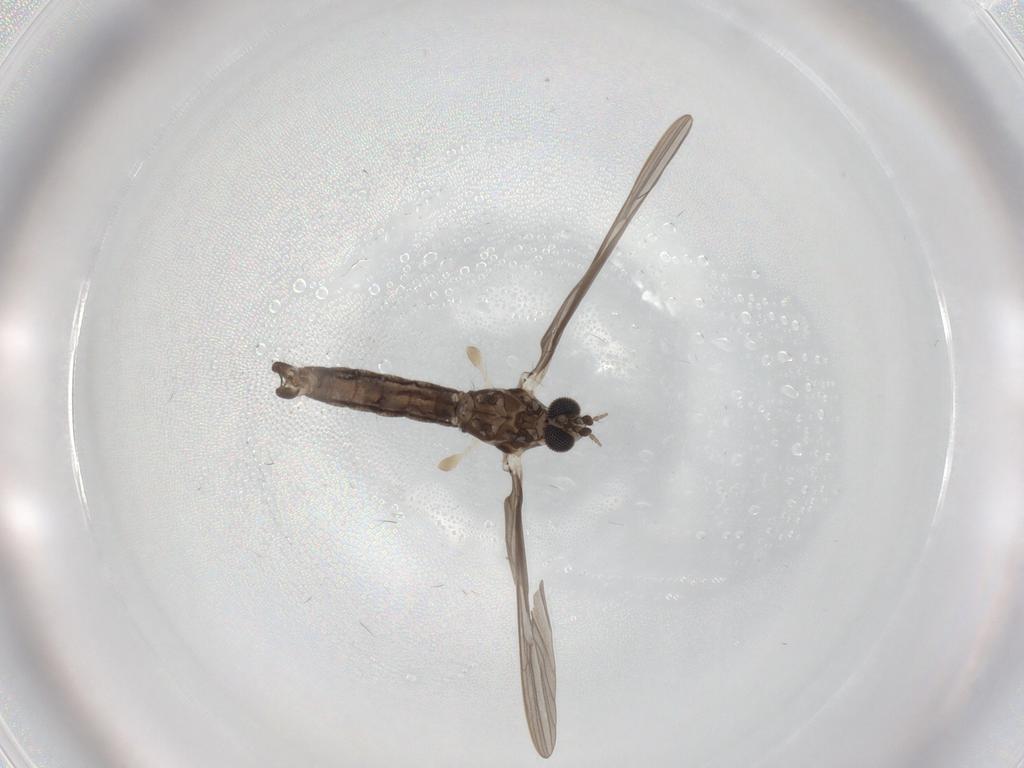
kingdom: Animalia
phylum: Arthropoda
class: Insecta
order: Diptera
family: Limoniidae
